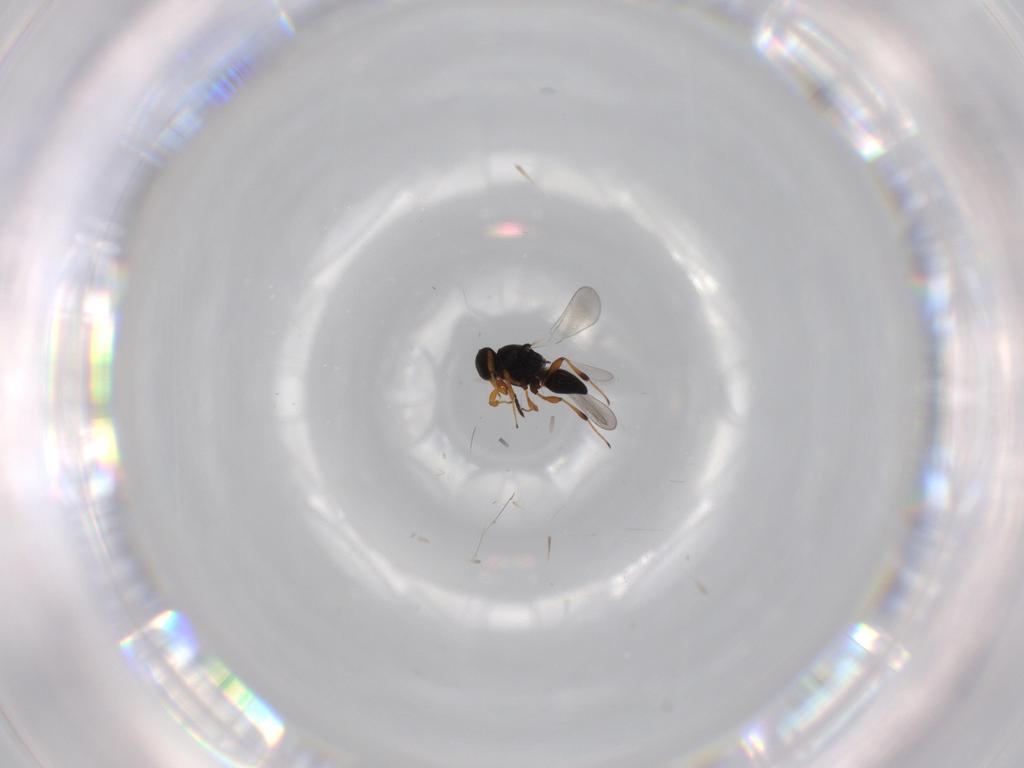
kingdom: Animalia
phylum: Arthropoda
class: Insecta
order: Hymenoptera
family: Platygastridae
